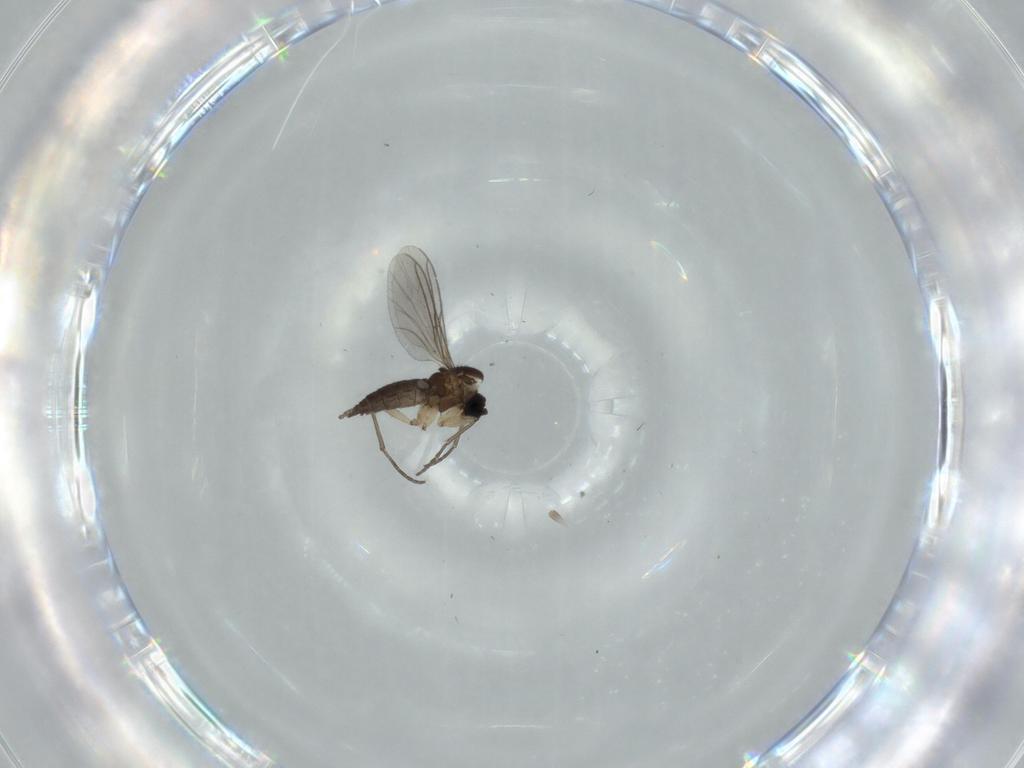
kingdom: Animalia
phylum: Arthropoda
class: Insecta
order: Diptera
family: Sciaridae
